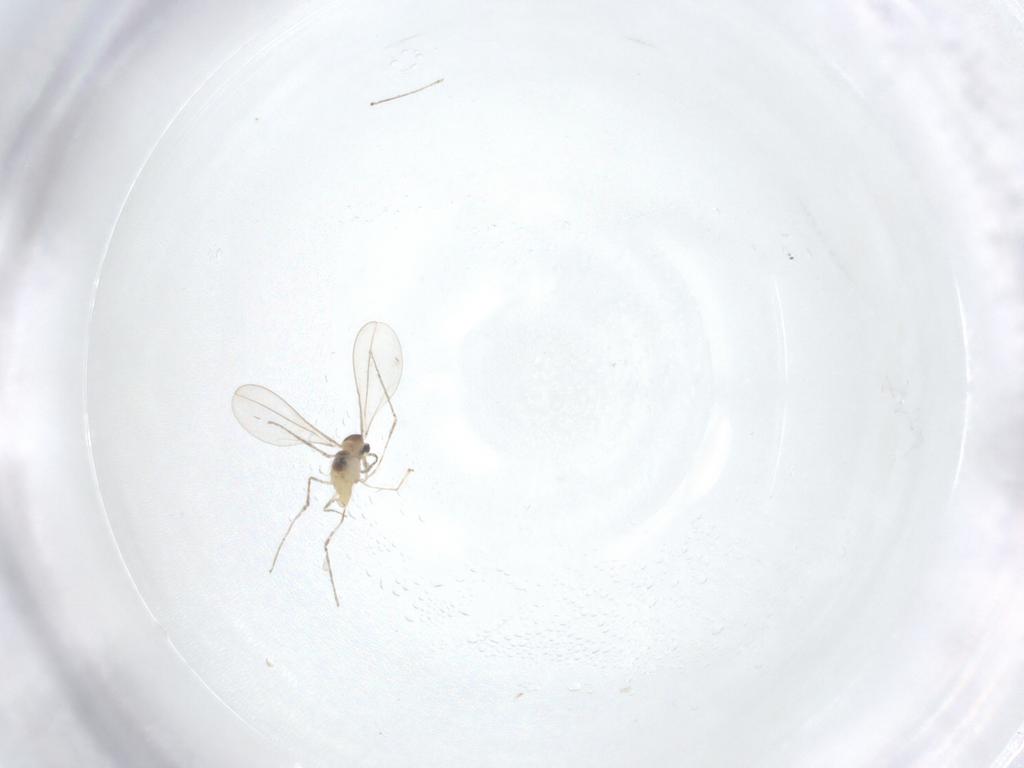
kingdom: Animalia
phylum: Arthropoda
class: Insecta
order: Diptera
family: Cecidomyiidae
